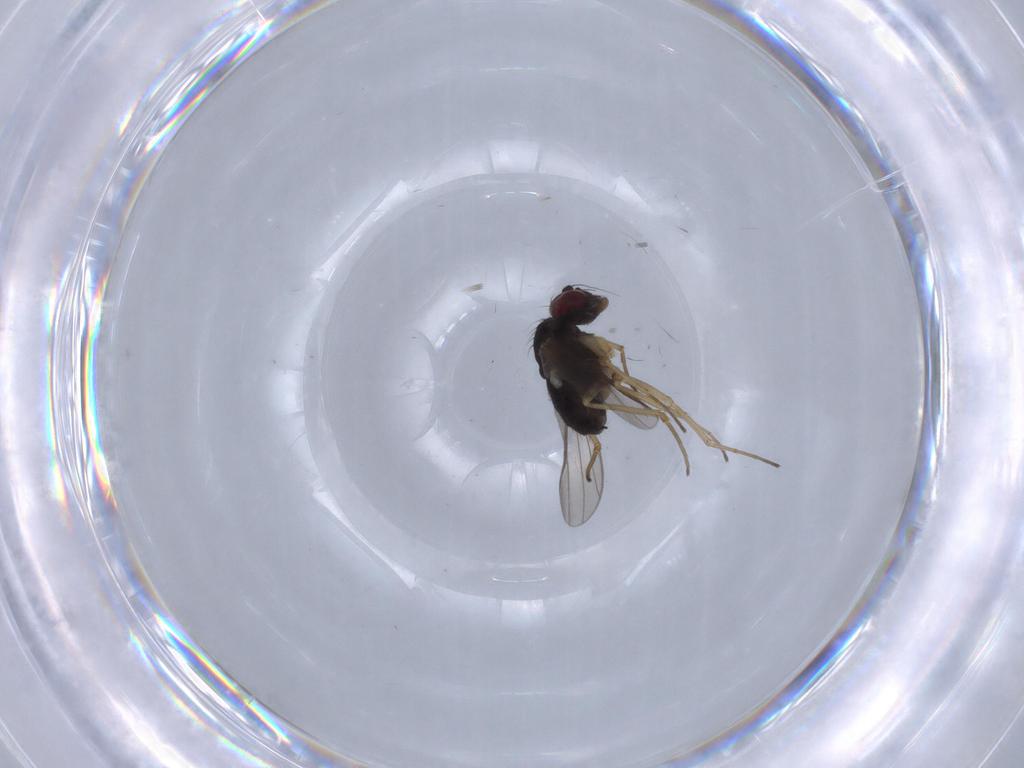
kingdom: Animalia
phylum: Arthropoda
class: Insecta
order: Diptera
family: Dolichopodidae
